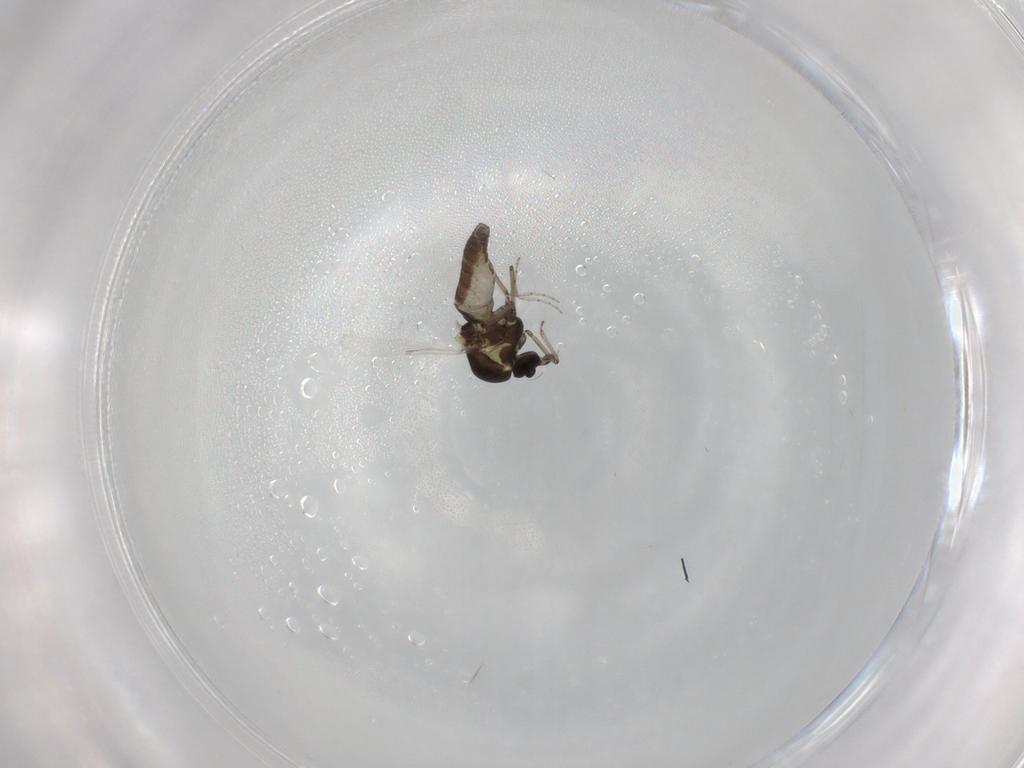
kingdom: Animalia
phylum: Arthropoda
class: Insecta
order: Diptera
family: Ceratopogonidae
